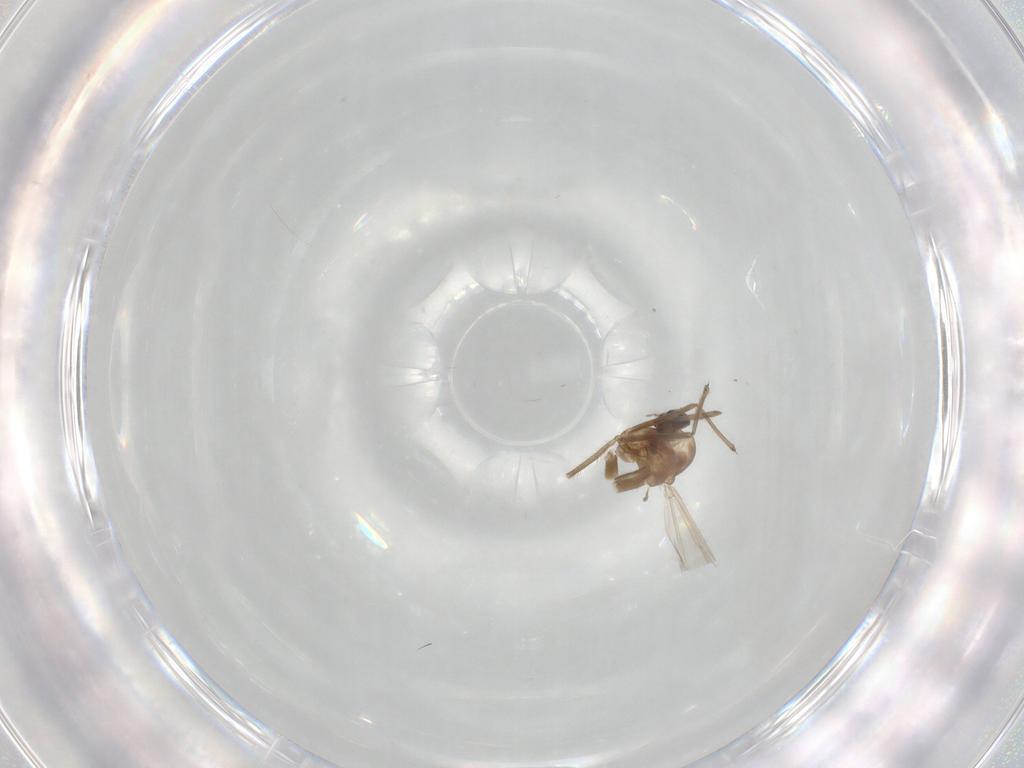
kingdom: Animalia
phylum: Arthropoda
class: Insecta
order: Diptera
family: Chironomidae
